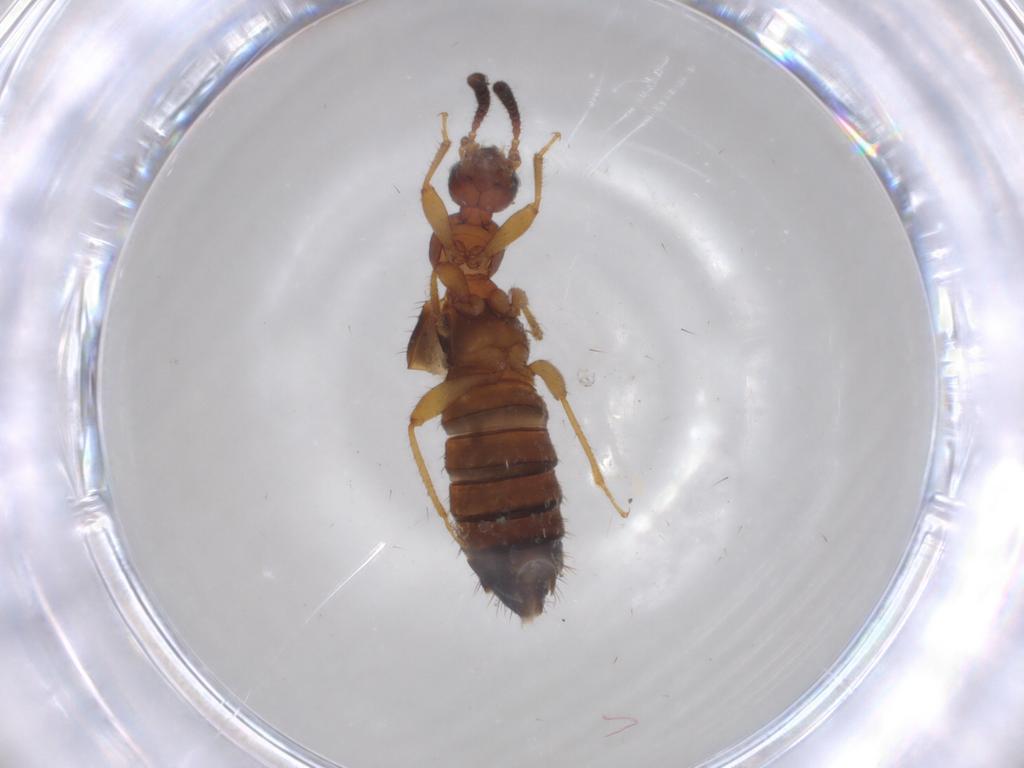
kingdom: Animalia
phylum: Arthropoda
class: Insecta
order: Coleoptera
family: Staphylinidae
